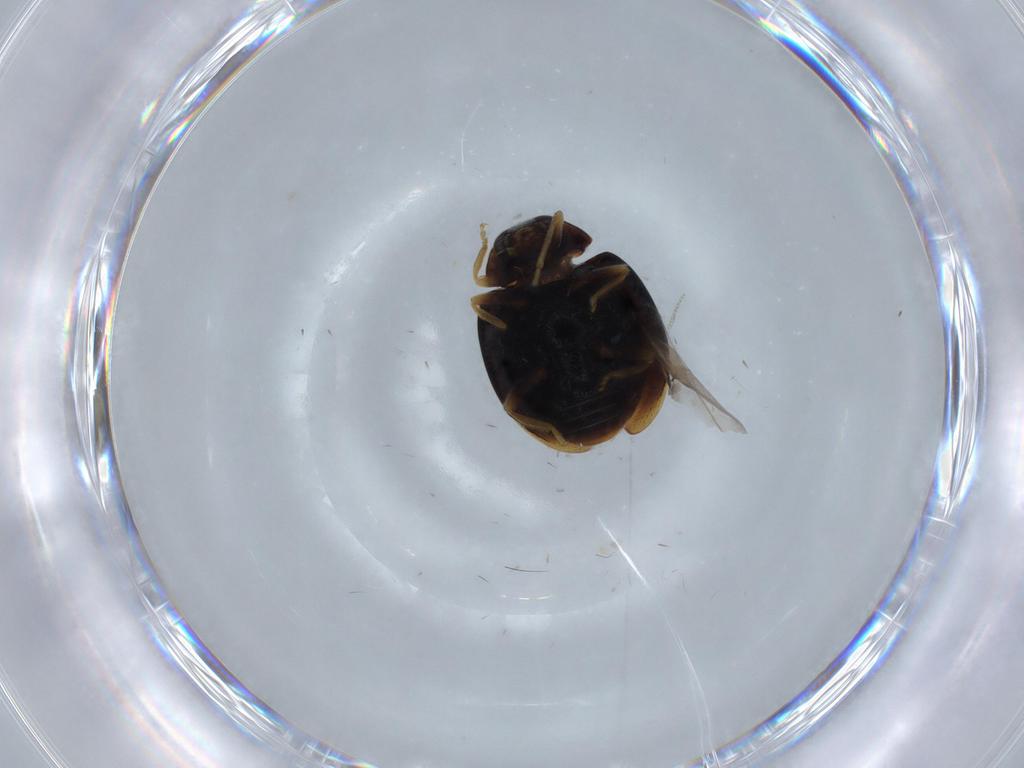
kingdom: Animalia
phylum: Arthropoda
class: Insecta
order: Coleoptera
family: Coccinellidae
